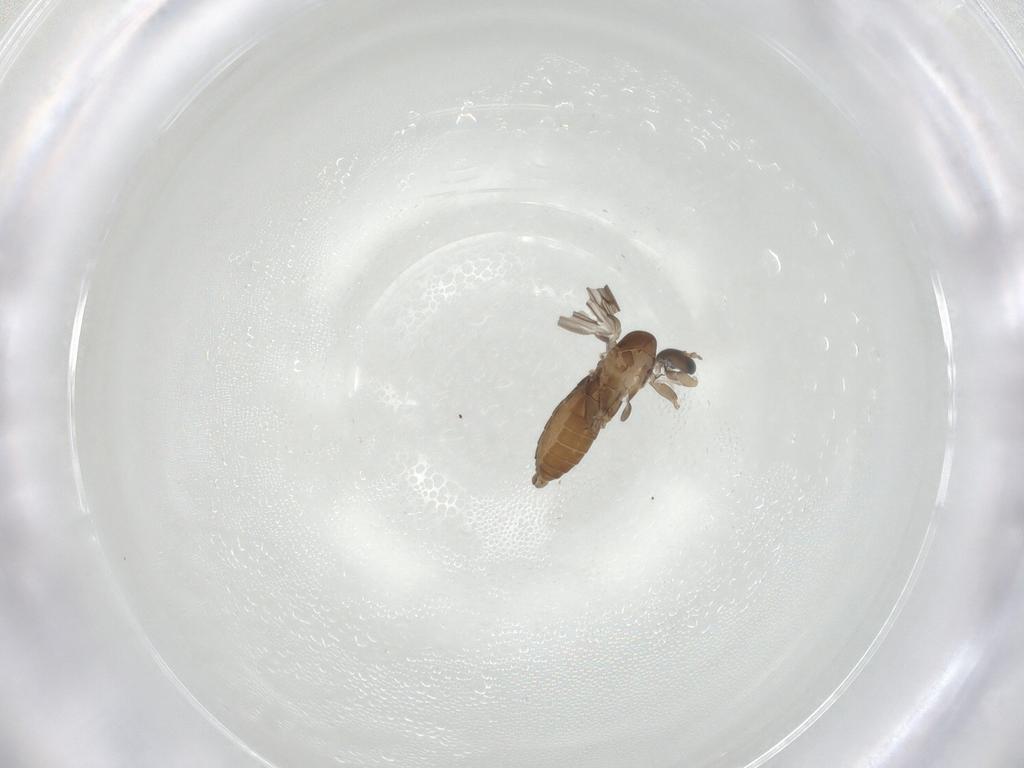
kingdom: Animalia
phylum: Arthropoda
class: Insecta
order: Diptera
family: Psychodidae
